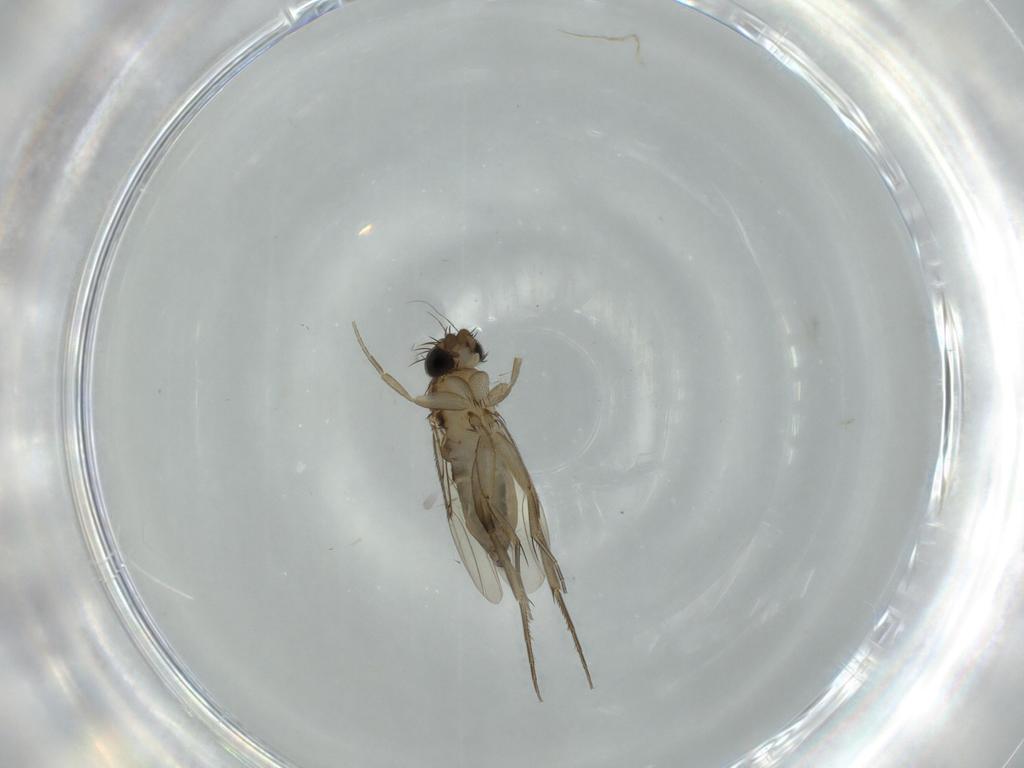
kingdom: Animalia
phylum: Arthropoda
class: Insecta
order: Diptera
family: Phoridae
